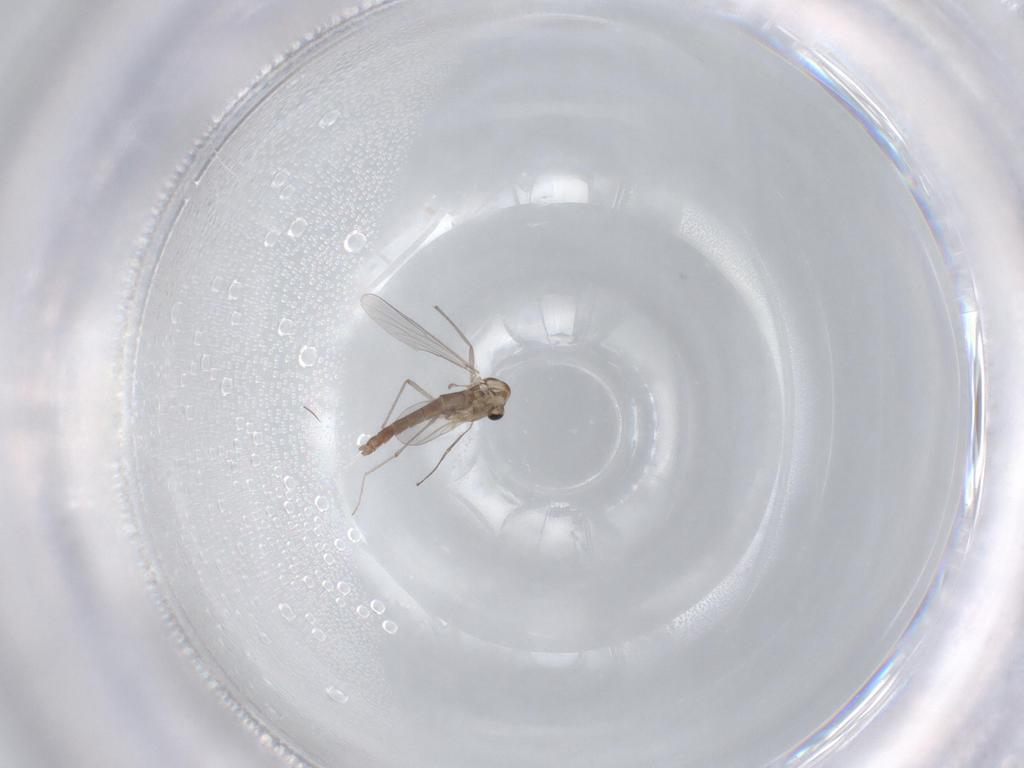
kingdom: Animalia
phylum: Arthropoda
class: Insecta
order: Diptera
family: Chironomidae
